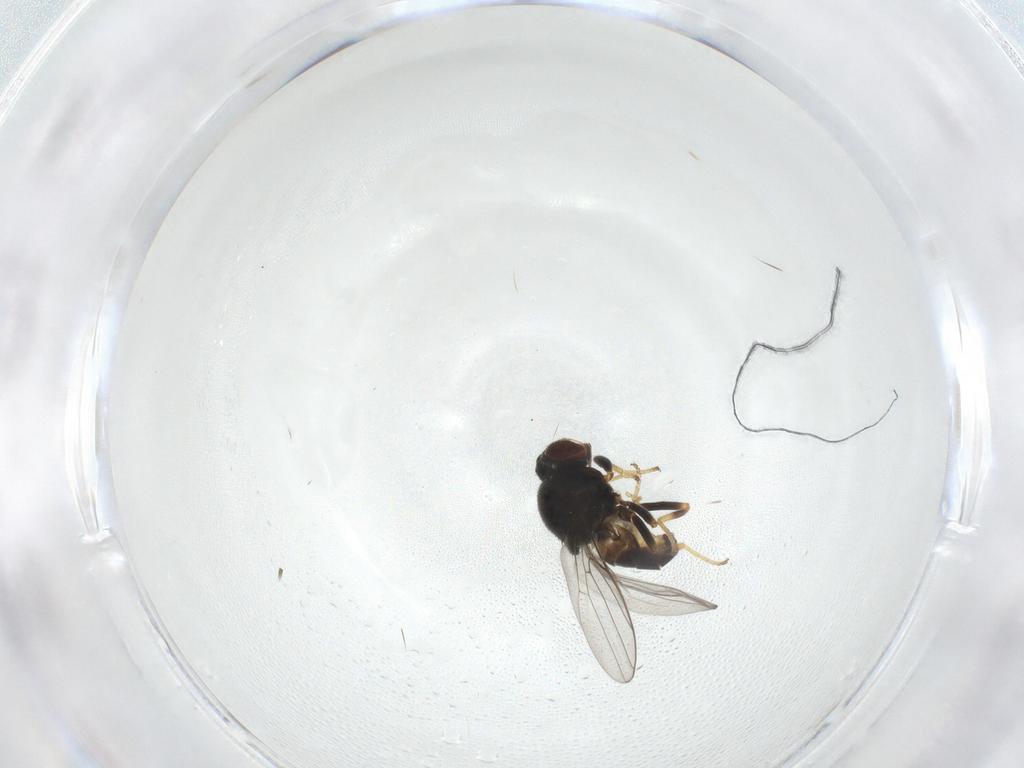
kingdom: Animalia
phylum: Arthropoda
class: Insecta
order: Diptera
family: Chloropidae
